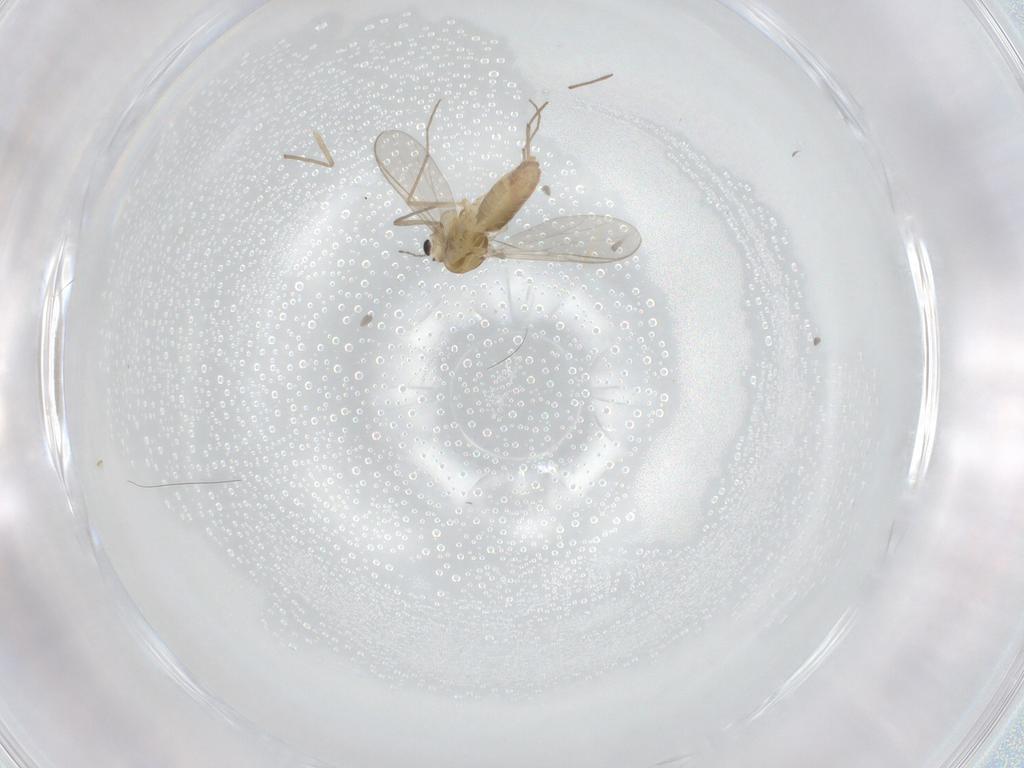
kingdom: Animalia
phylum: Arthropoda
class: Insecta
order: Diptera
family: Chironomidae
